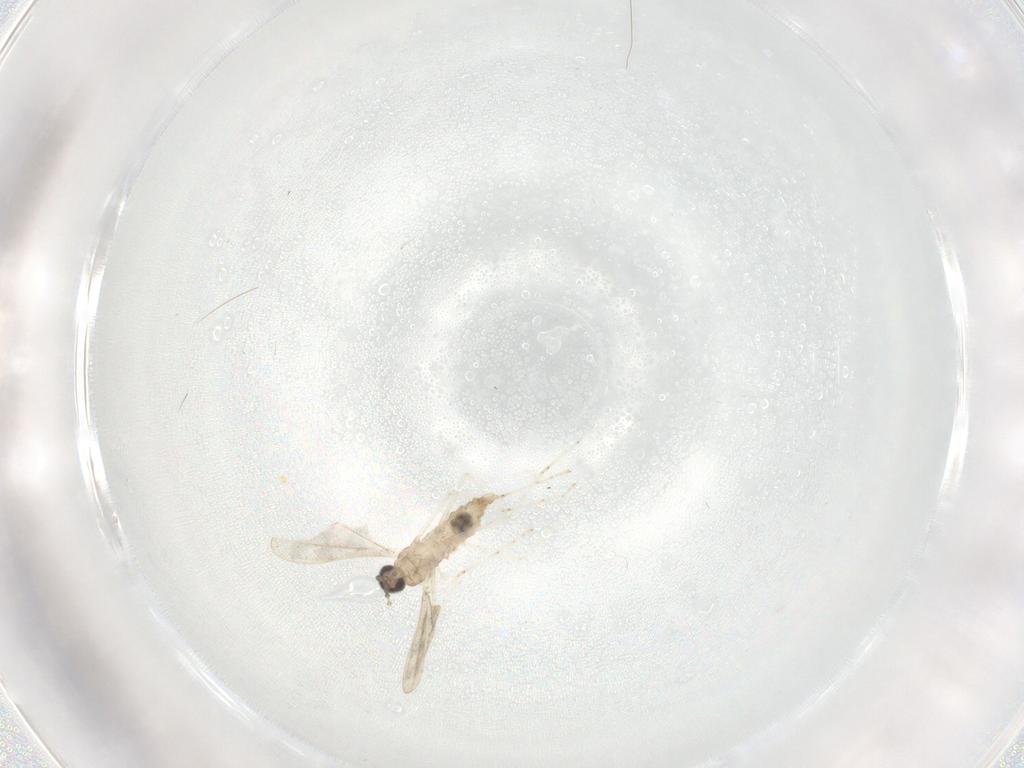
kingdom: Animalia
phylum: Arthropoda
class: Insecta
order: Diptera
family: Cecidomyiidae
